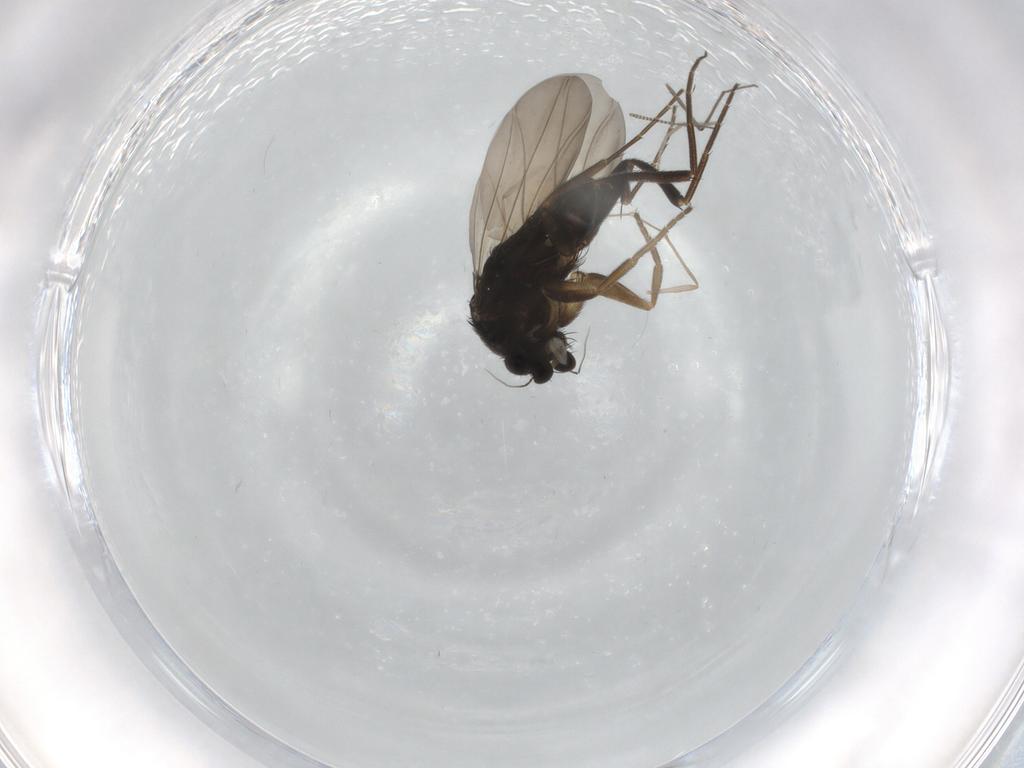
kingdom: Animalia
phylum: Arthropoda
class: Insecta
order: Diptera
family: Phoridae
